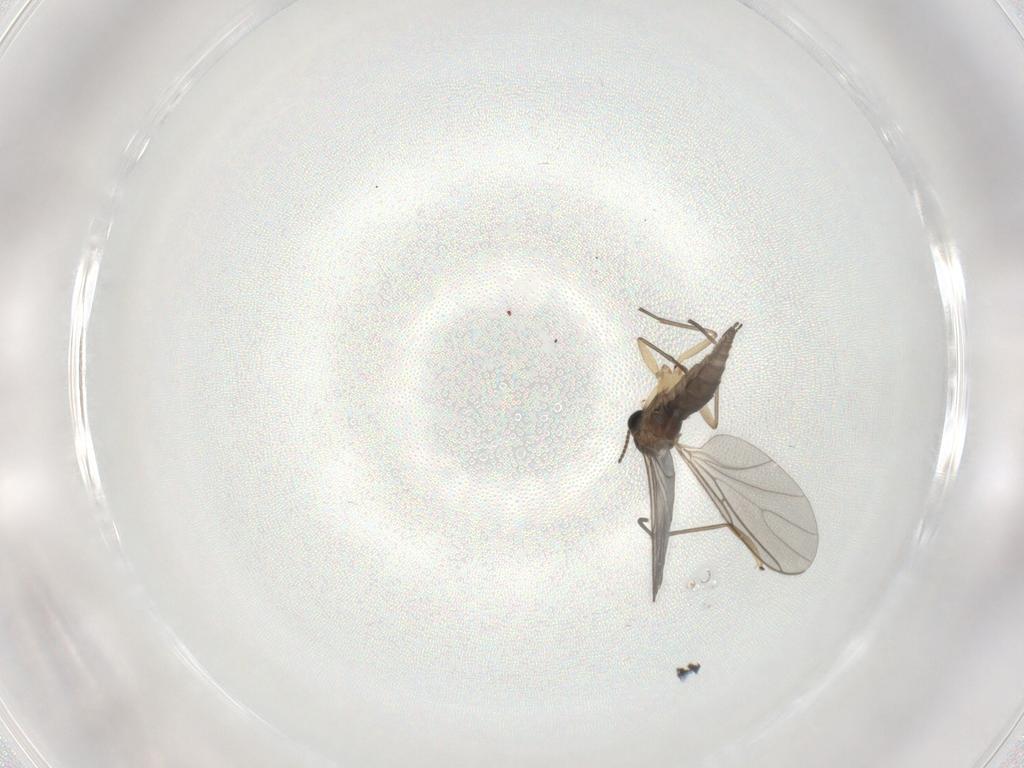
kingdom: Animalia
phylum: Arthropoda
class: Insecta
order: Diptera
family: Sciaridae
